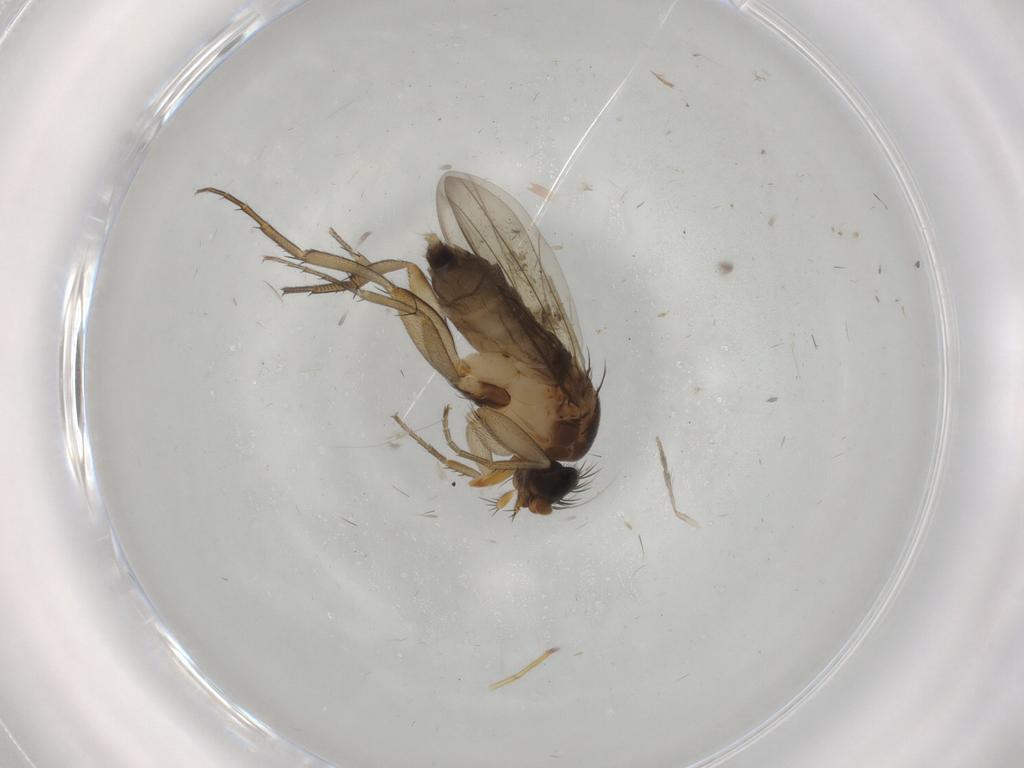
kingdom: Animalia
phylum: Arthropoda
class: Insecta
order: Diptera
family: Phoridae
